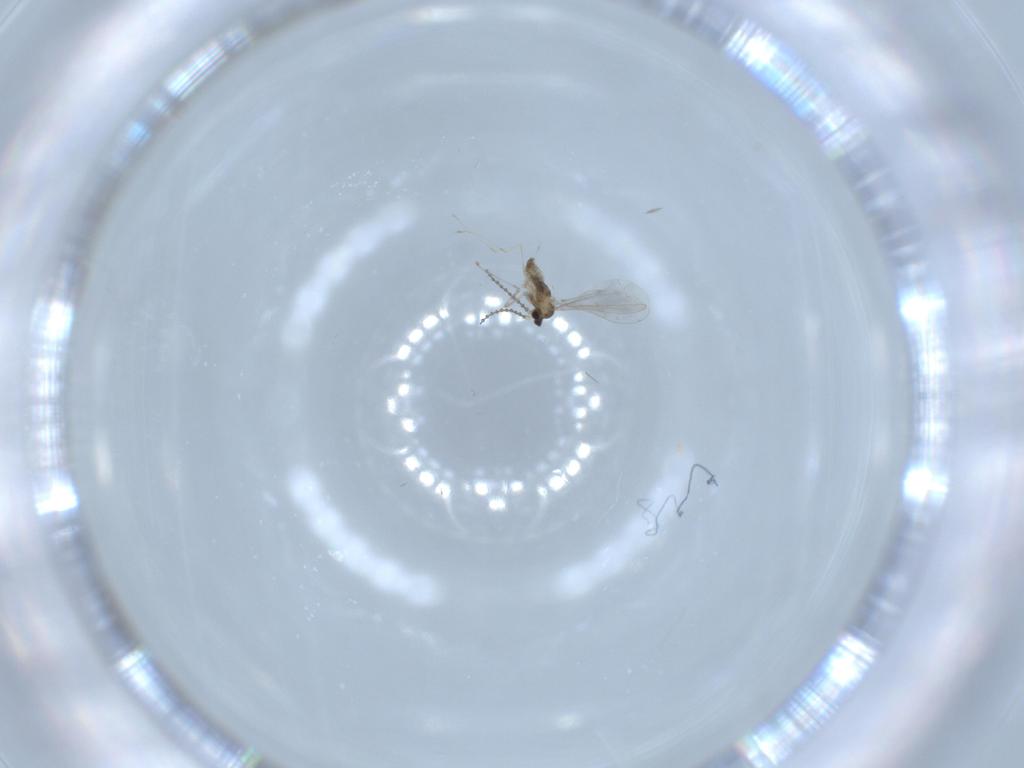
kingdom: Animalia
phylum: Arthropoda
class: Insecta
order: Diptera
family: Cecidomyiidae
